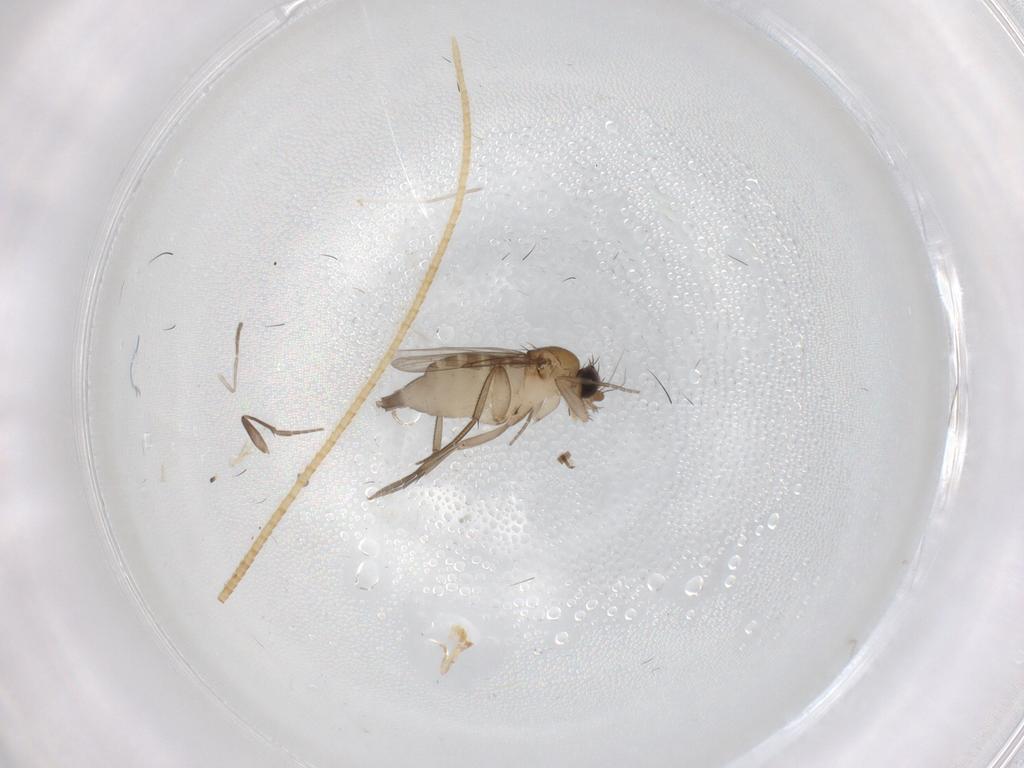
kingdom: Animalia
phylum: Arthropoda
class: Insecta
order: Diptera
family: Phoridae
